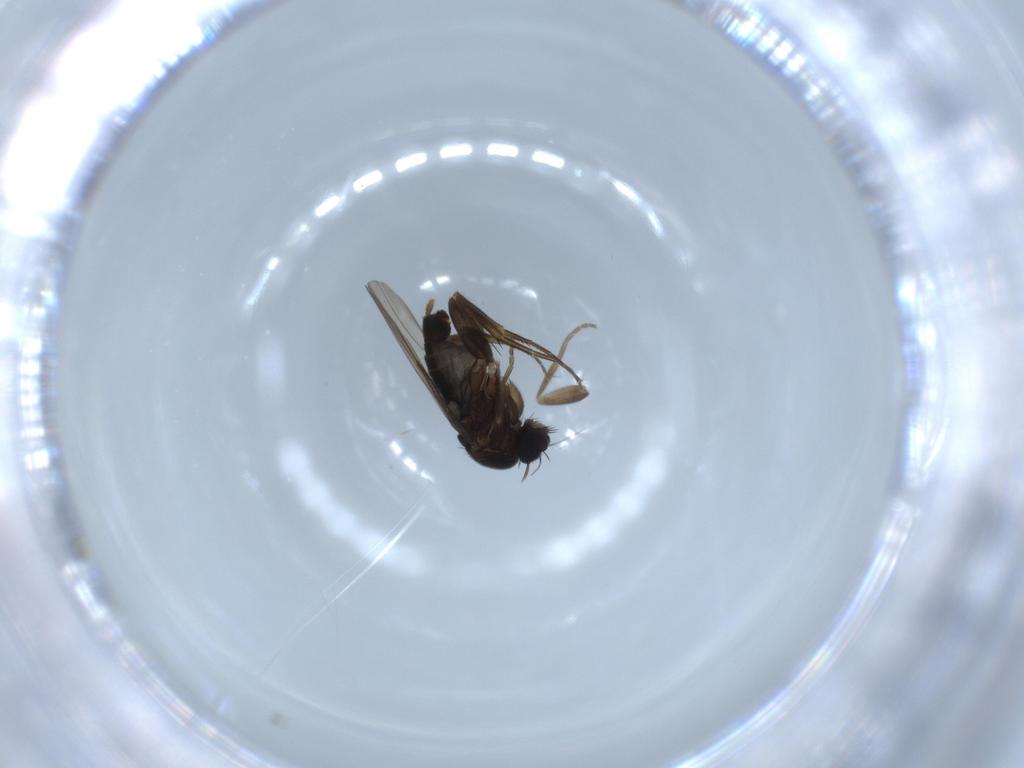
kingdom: Animalia
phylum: Arthropoda
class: Insecta
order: Diptera
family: Phoridae
